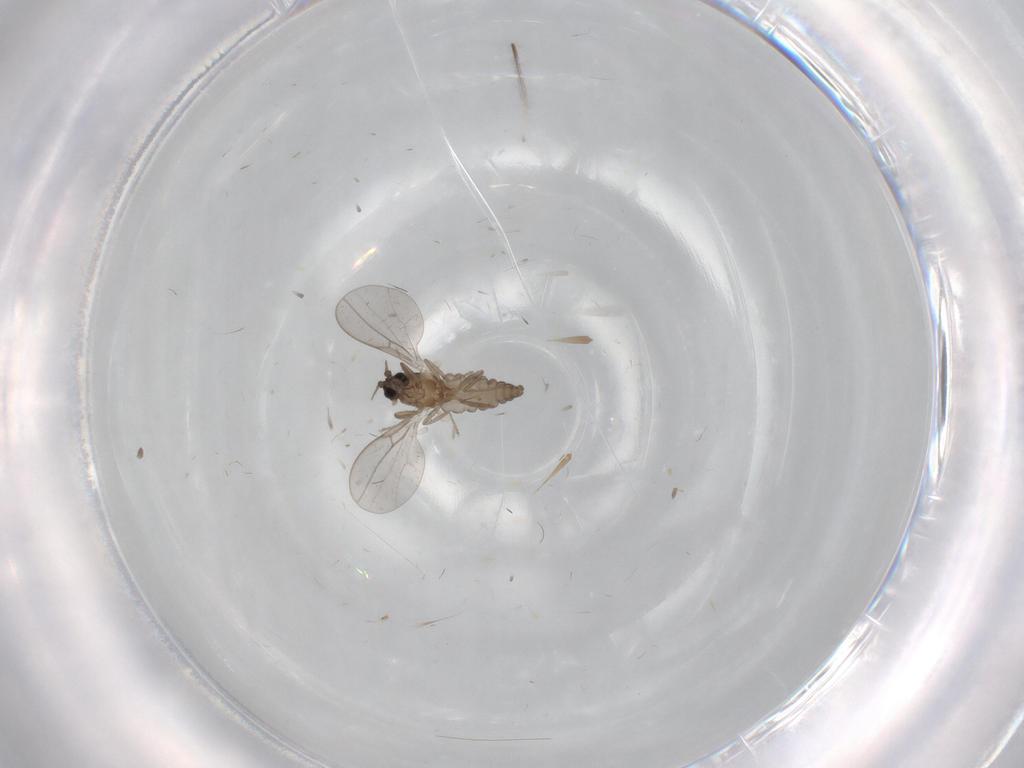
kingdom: Animalia
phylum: Arthropoda
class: Insecta
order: Diptera
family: Cecidomyiidae
